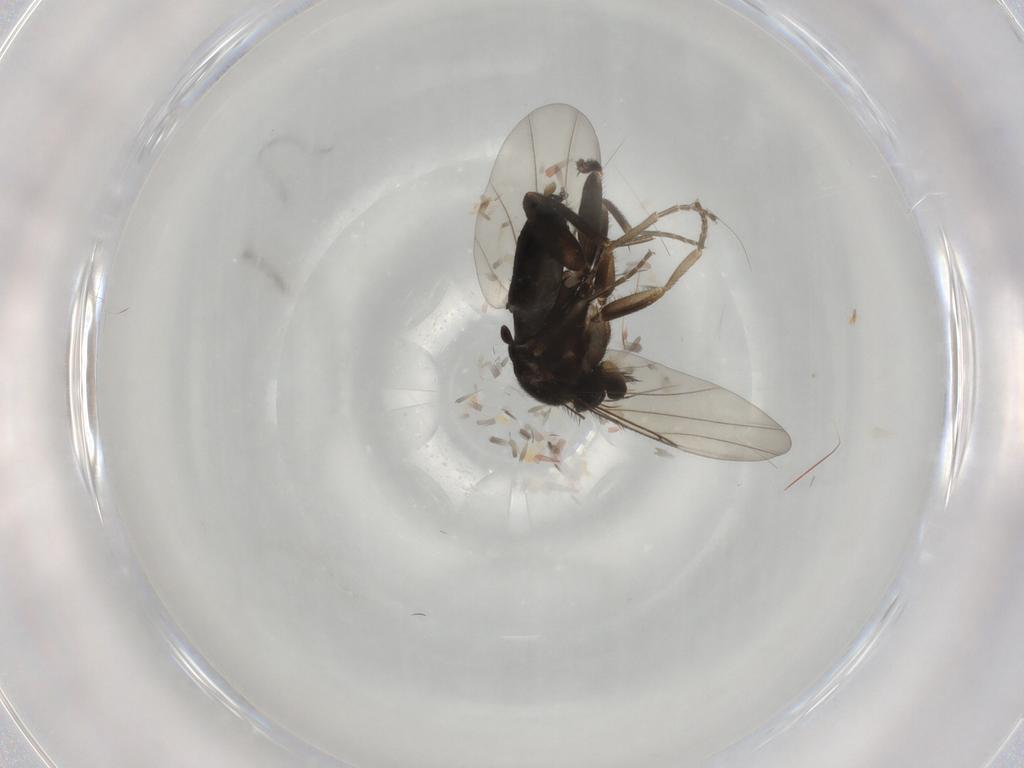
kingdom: Animalia
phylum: Arthropoda
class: Insecta
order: Diptera
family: Phoridae
